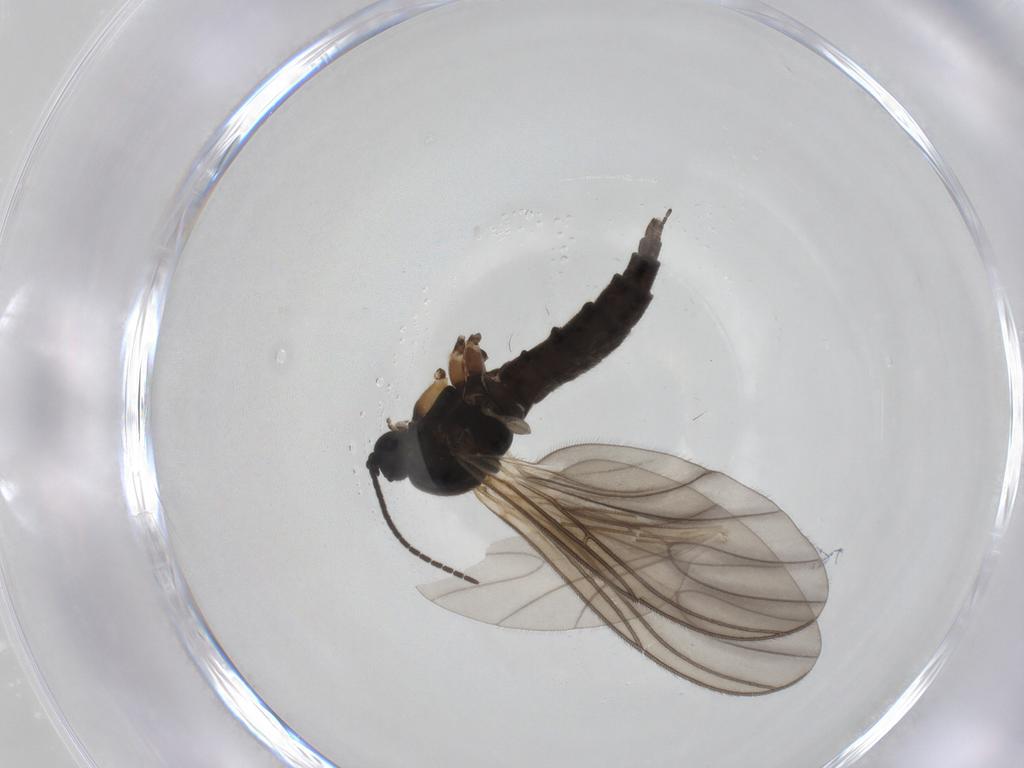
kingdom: Animalia
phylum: Arthropoda
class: Insecta
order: Diptera
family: Sciaridae
